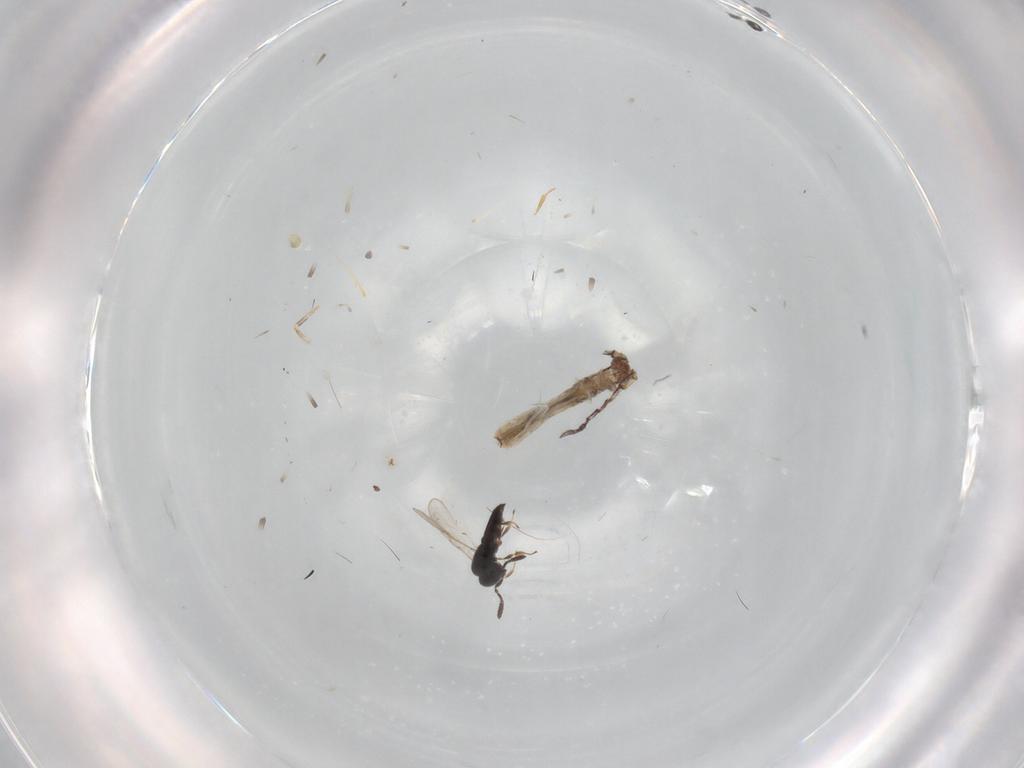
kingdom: Animalia
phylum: Arthropoda
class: Insecta
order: Hymenoptera
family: Scelionidae
